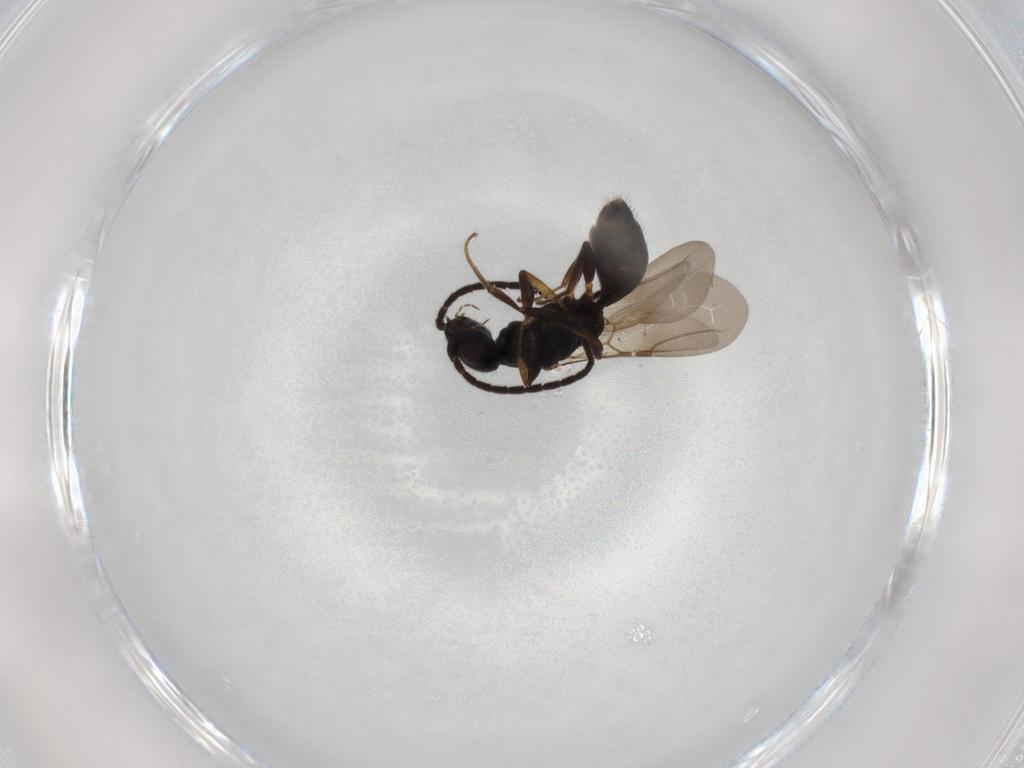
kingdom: Animalia
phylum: Arthropoda
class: Insecta
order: Hymenoptera
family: Bethylidae
